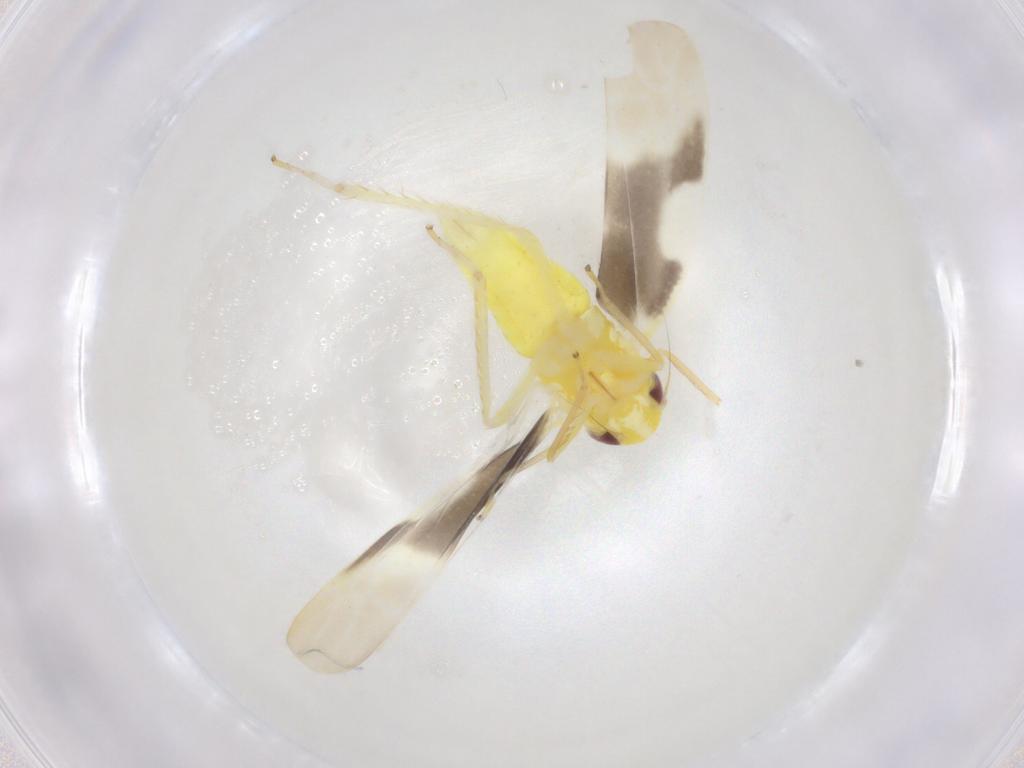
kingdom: Animalia
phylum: Arthropoda
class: Insecta
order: Hemiptera
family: Cicadellidae
